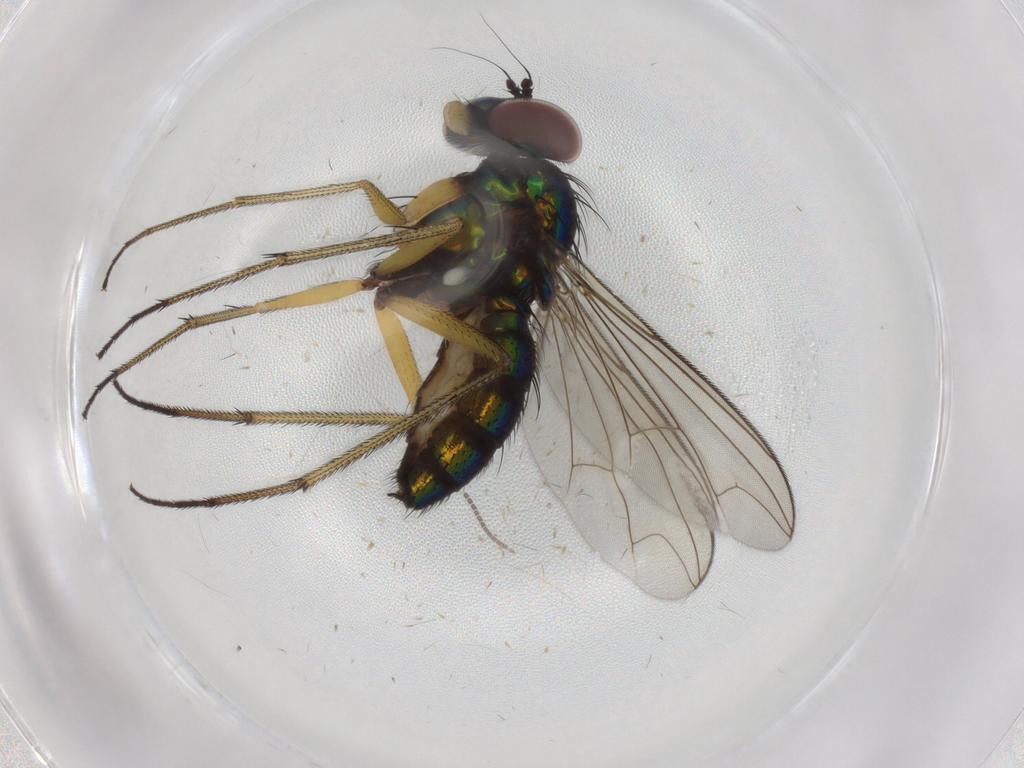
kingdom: Animalia
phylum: Arthropoda
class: Insecta
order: Diptera
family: Dolichopodidae
